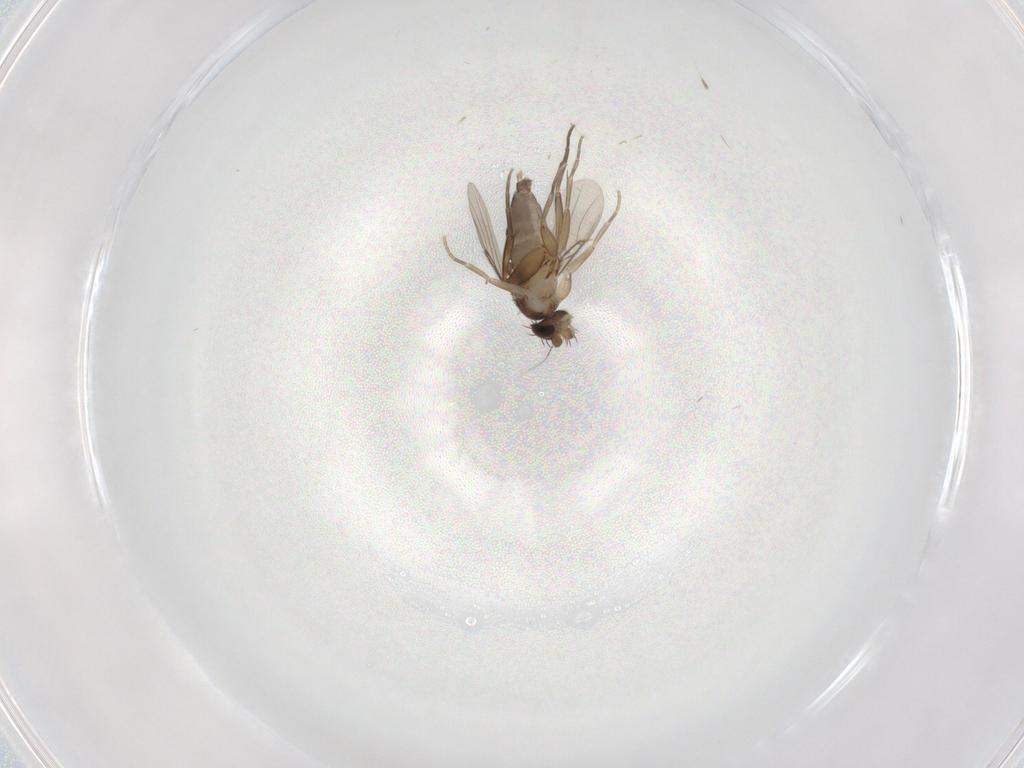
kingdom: Animalia
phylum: Arthropoda
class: Insecta
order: Diptera
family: Phoridae
